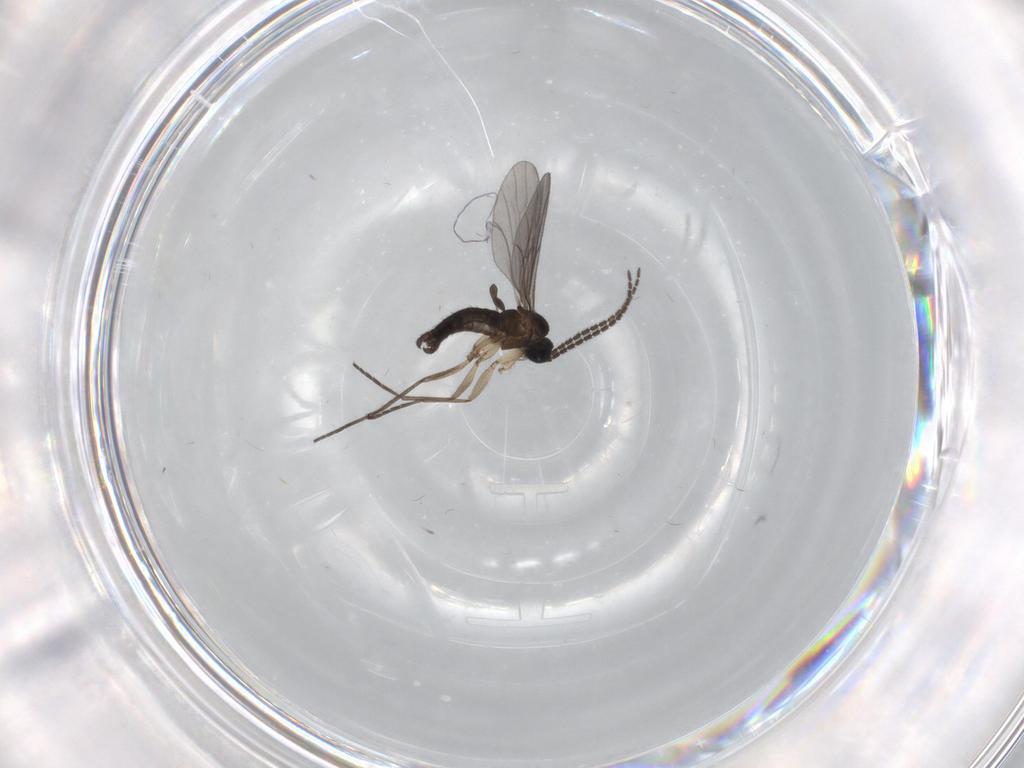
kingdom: Animalia
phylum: Arthropoda
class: Insecta
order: Diptera
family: Sciaridae
